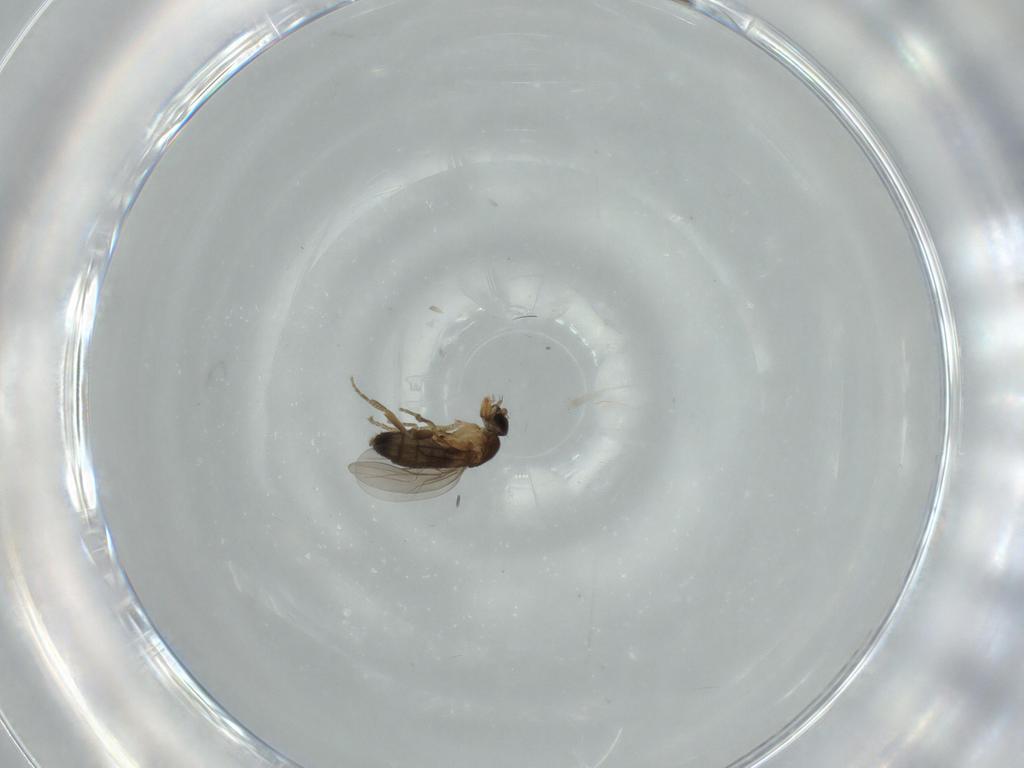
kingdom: Animalia
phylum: Arthropoda
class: Insecta
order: Diptera
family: Phoridae
